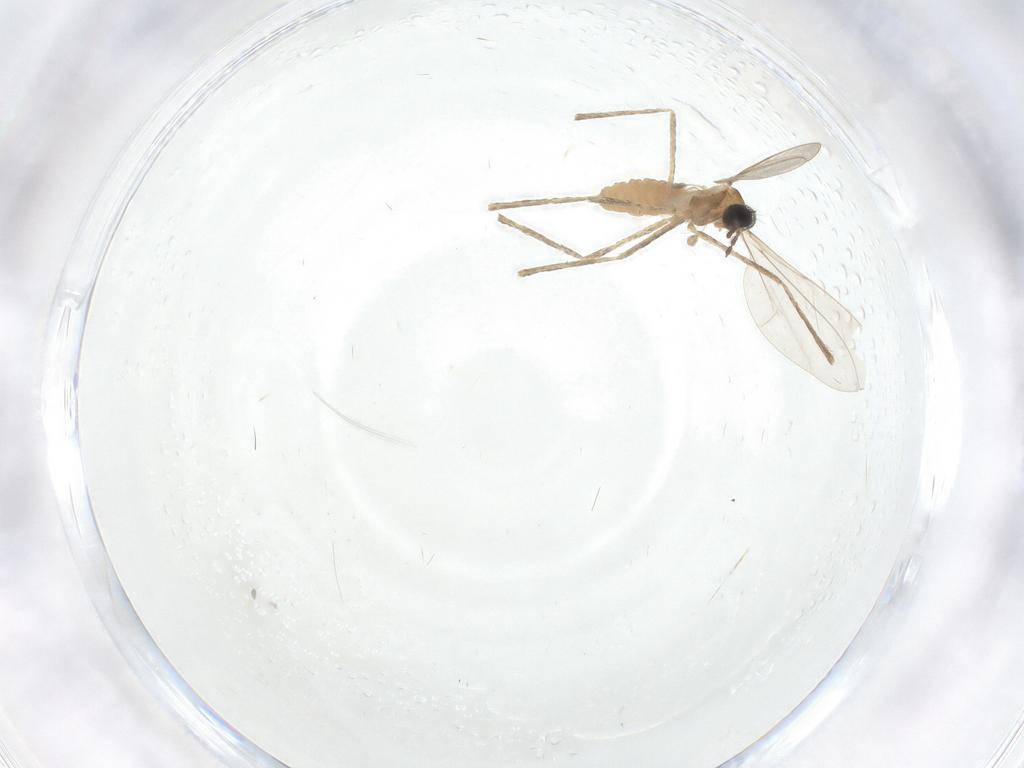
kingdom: Animalia
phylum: Arthropoda
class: Insecta
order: Diptera
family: Cecidomyiidae
